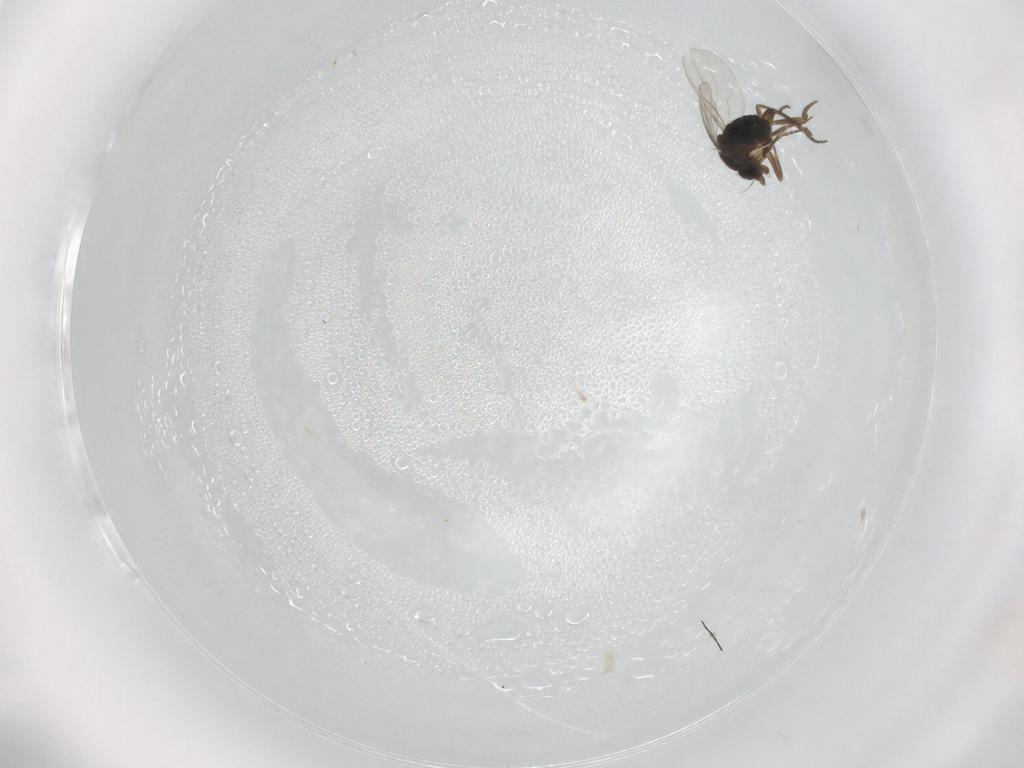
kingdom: Animalia
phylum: Arthropoda
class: Insecta
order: Diptera
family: Phoridae
